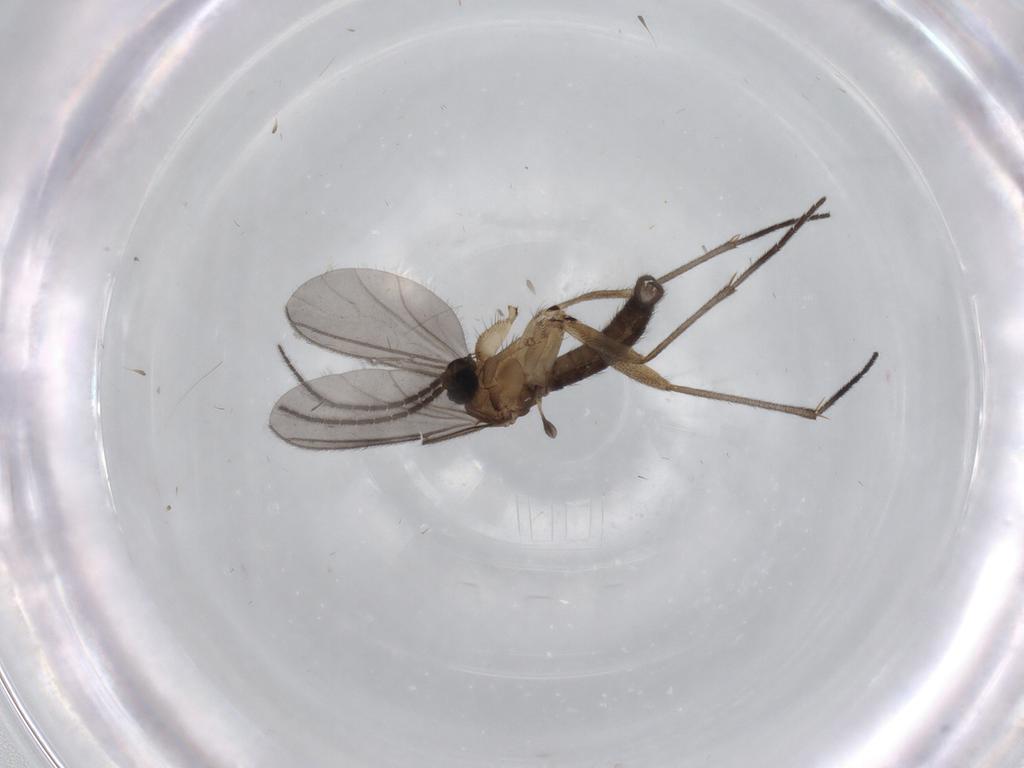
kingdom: Animalia
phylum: Arthropoda
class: Insecta
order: Diptera
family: Sciaridae
